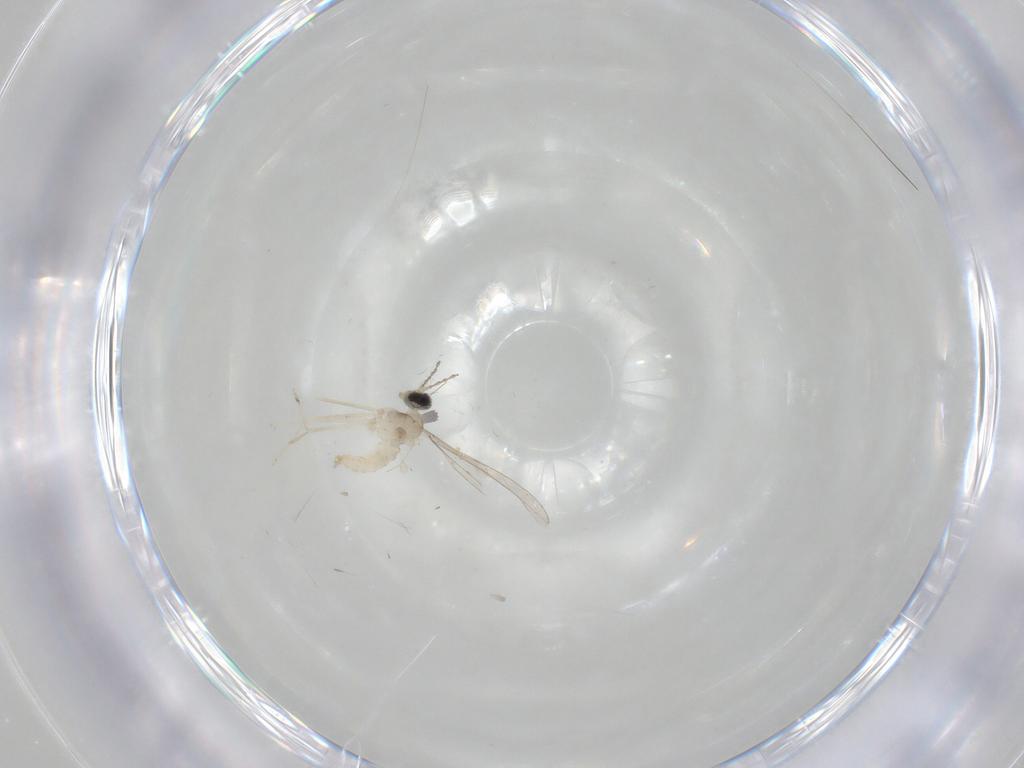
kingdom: Animalia
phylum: Arthropoda
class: Insecta
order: Diptera
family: Cecidomyiidae
